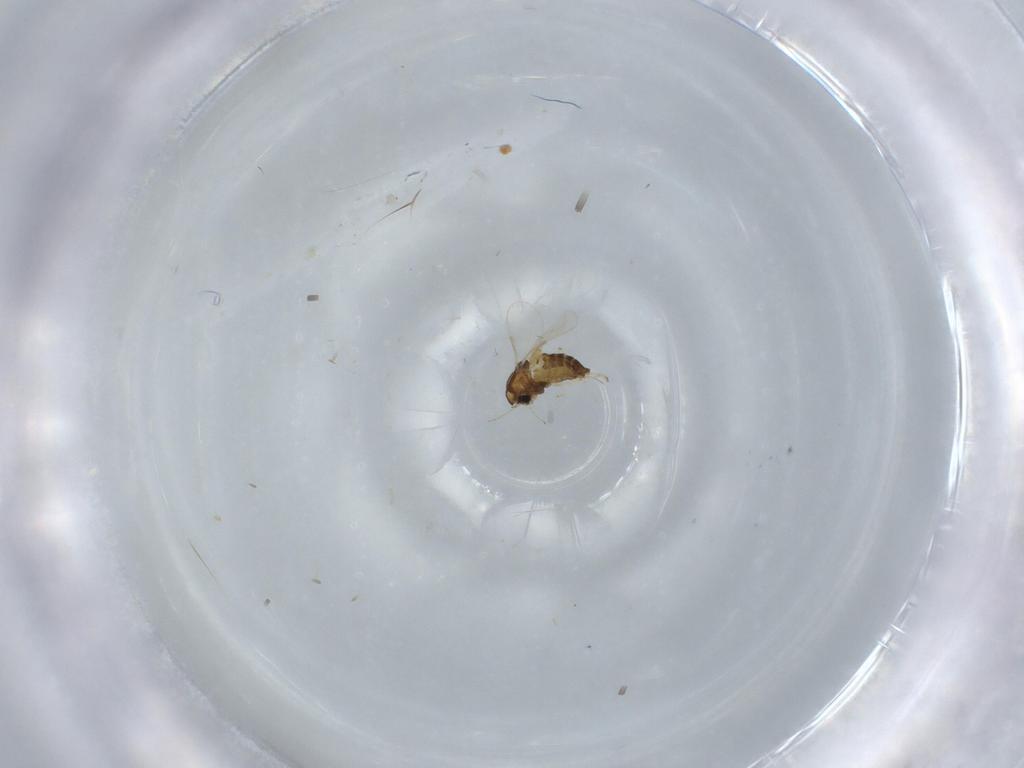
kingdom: Animalia
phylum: Arthropoda
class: Insecta
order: Diptera
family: Chironomidae
